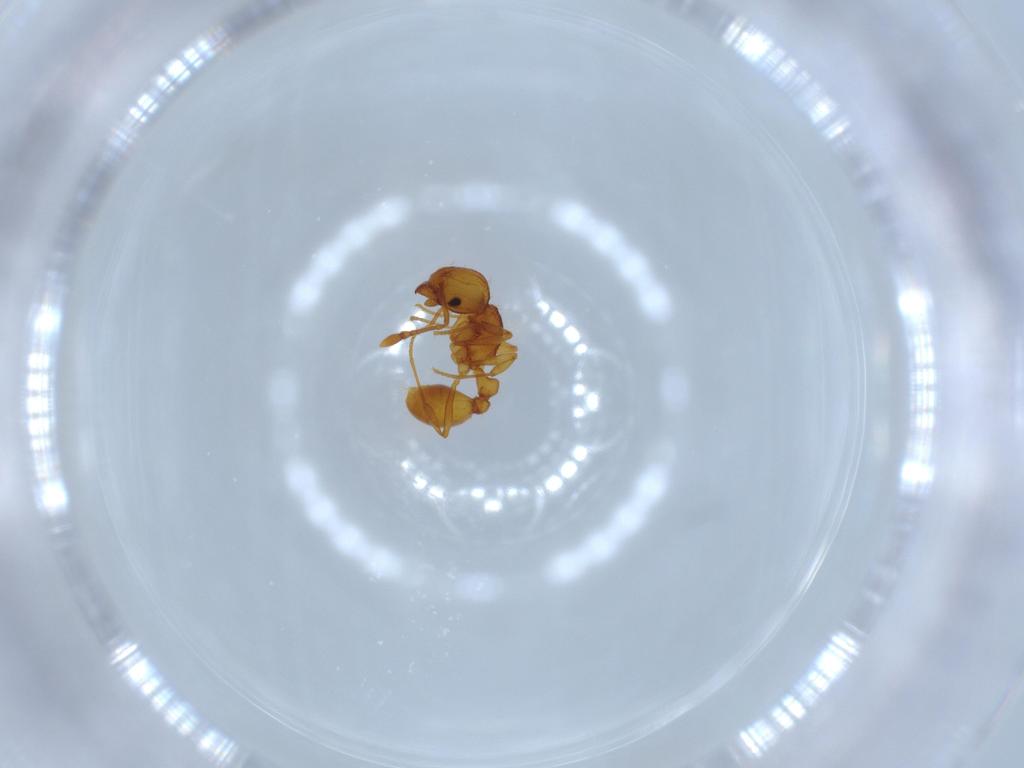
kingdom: Animalia
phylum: Arthropoda
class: Insecta
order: Hymenoptera
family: Formicidae
